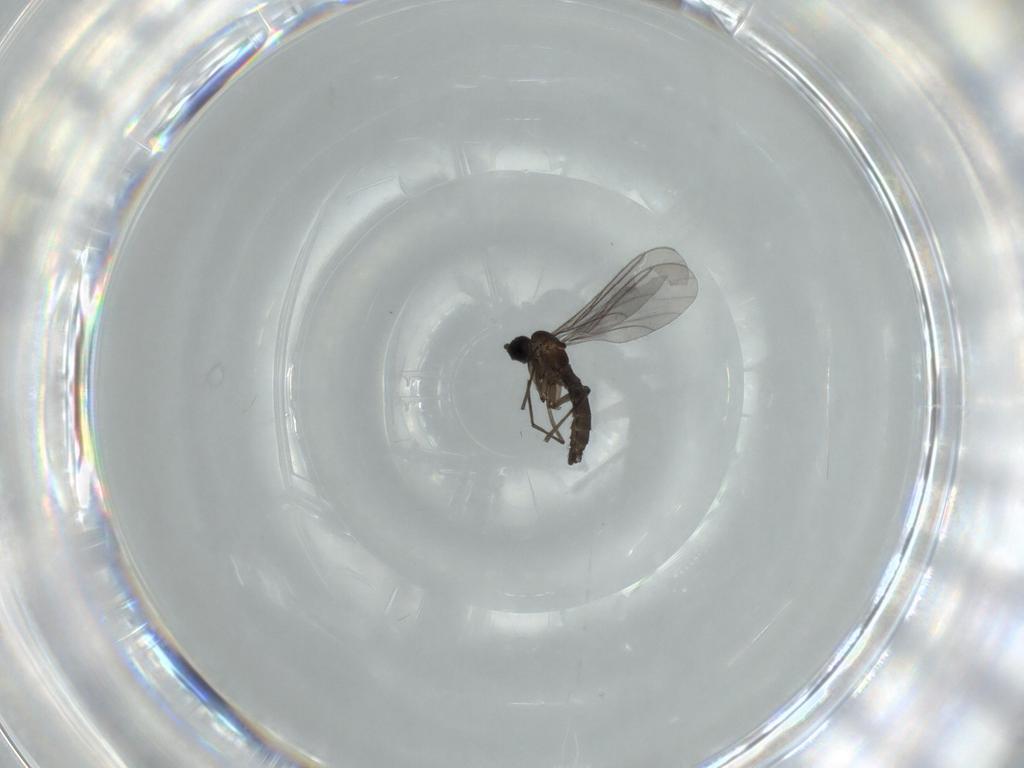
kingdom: Animalia
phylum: Arthropoda
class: Insecta
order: Diptera
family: Sciaridae
